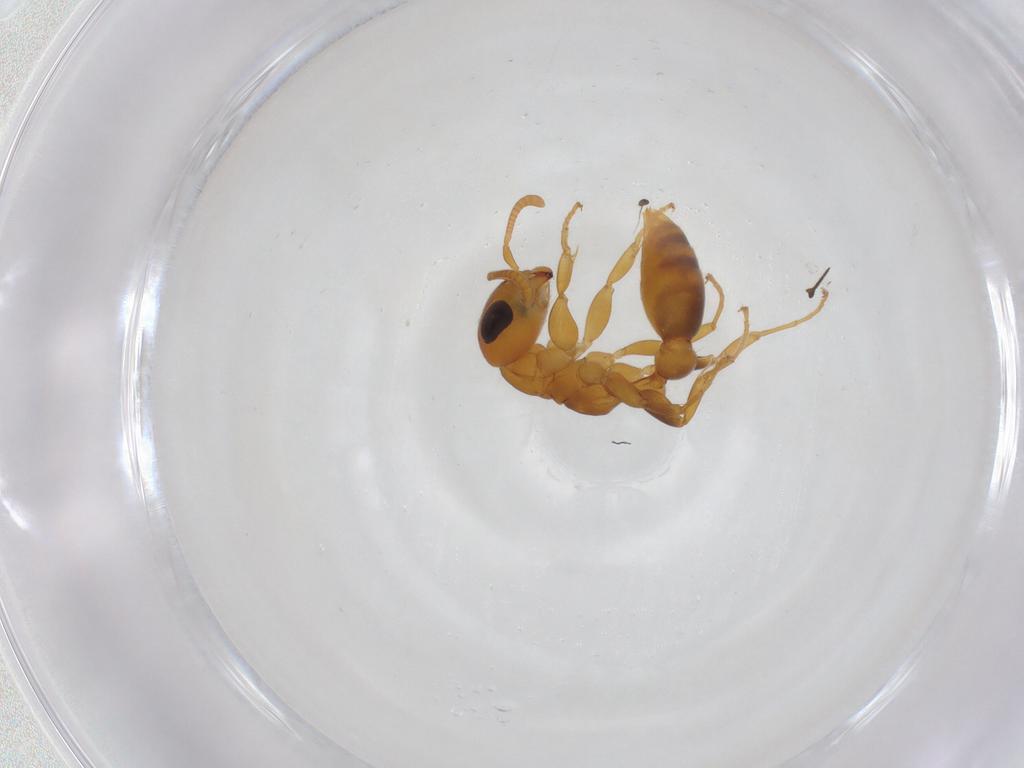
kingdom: Animalia
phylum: Arthropoda
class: Insecta
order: Hymenoptera
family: Formicidae
